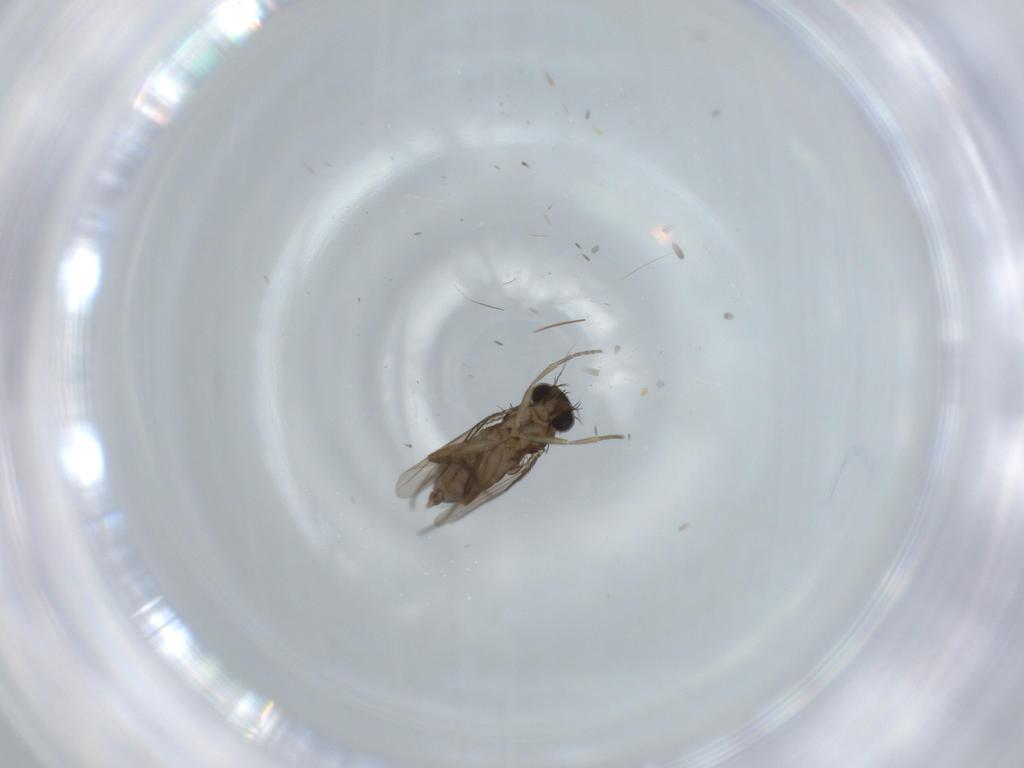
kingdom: Animalia
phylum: Arthropoda
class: Insecta
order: Diptera
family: Phoridae
